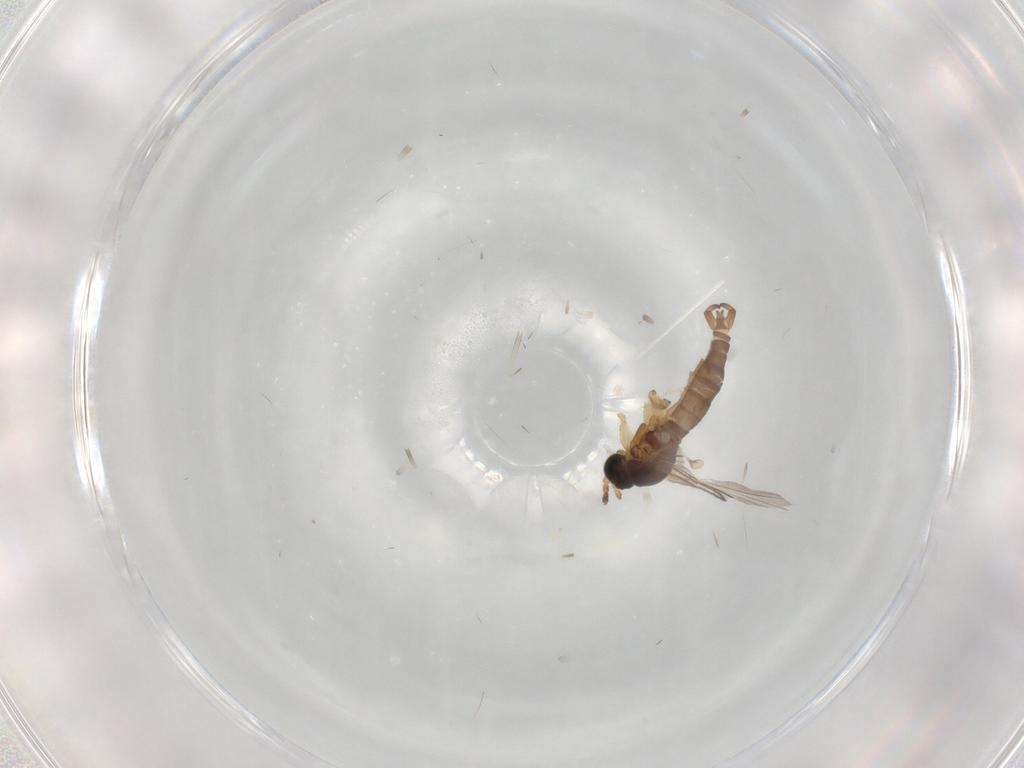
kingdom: Animalia
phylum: Arthropoda
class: Insecta
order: Diptera
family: Sciaridae
